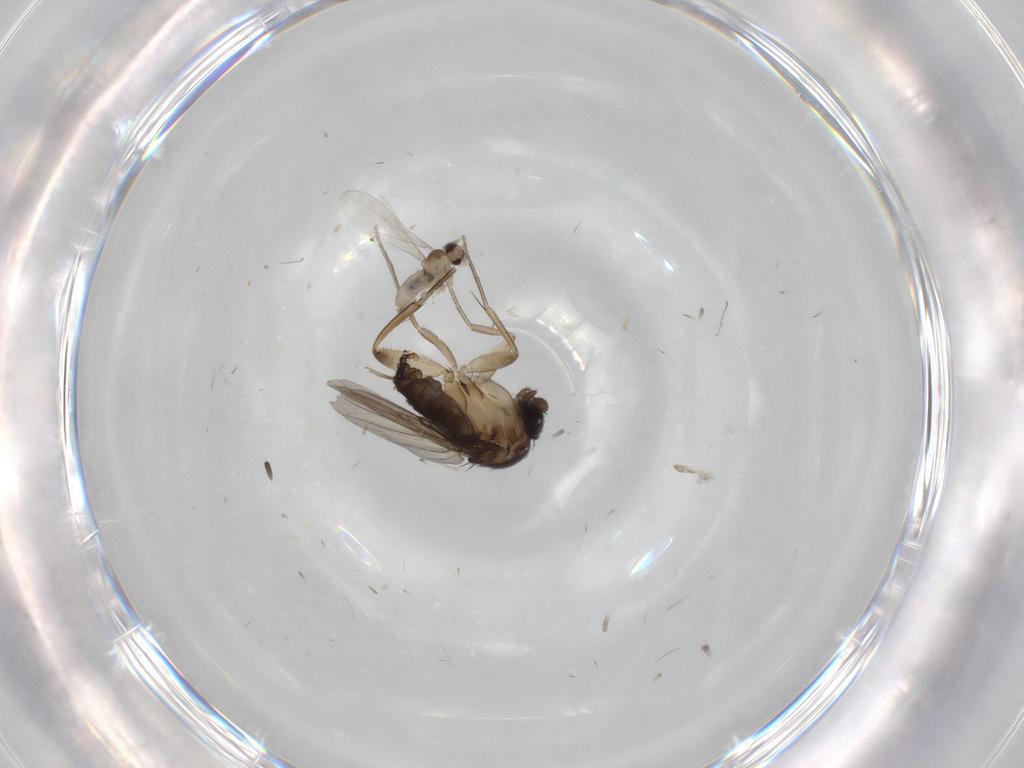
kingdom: Animalia
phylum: Arthropoda
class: Insecta
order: Diptera
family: Cecidomyiidae
